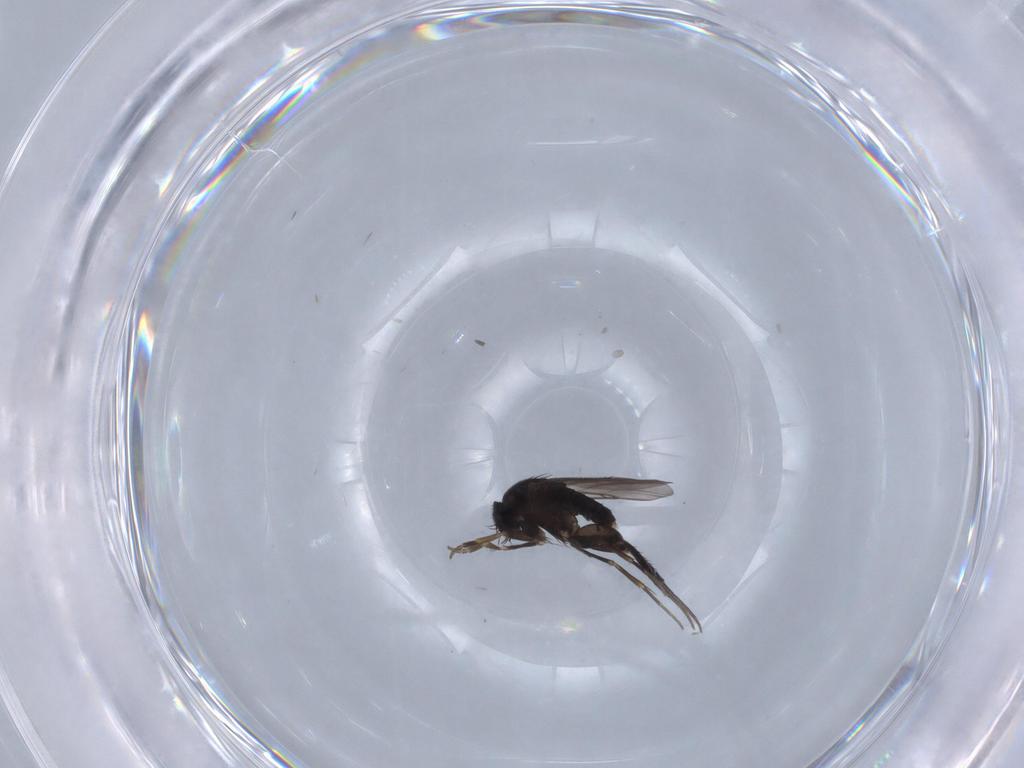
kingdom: Animalia
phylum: Arthropoda
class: Insecta
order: Diptera
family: Phoridae
